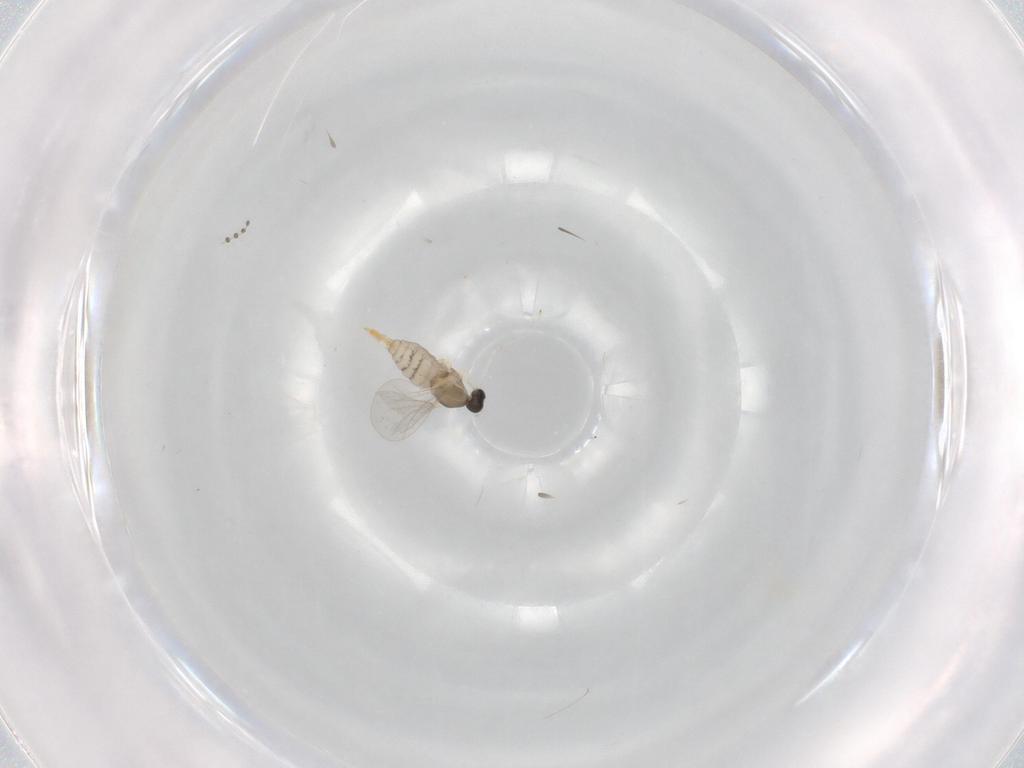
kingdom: Animalia
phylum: Arthropoda
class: Insecta
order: Diptera
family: Cecidomyiidae
